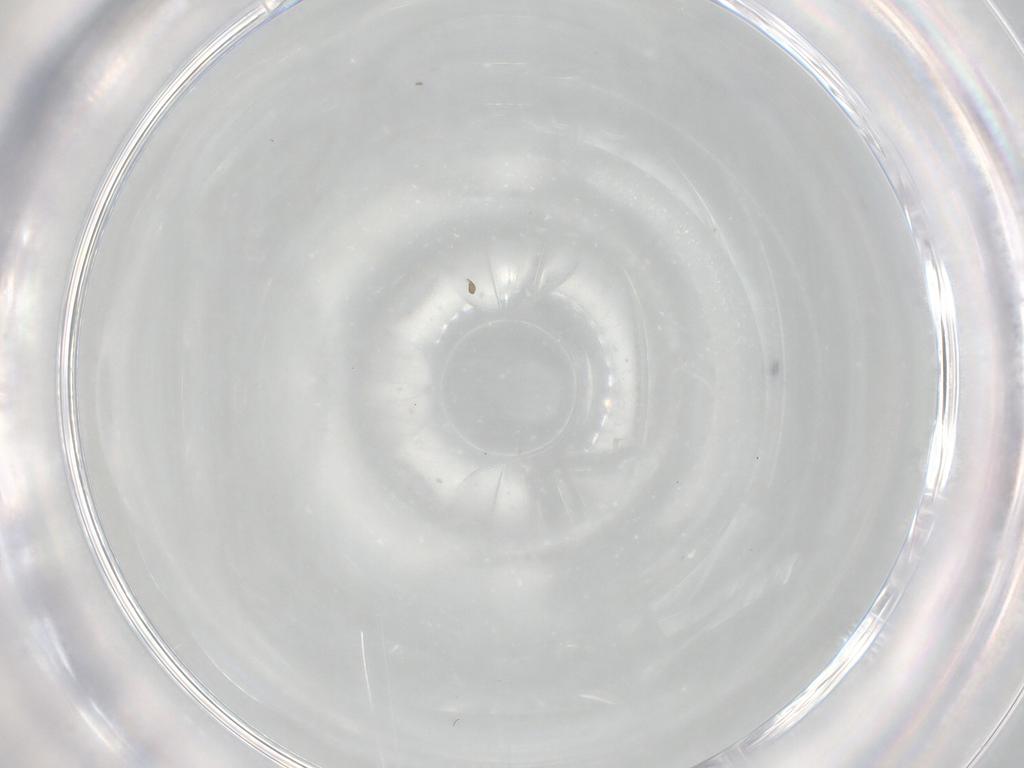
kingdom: Animalia
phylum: Arthropoda
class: Insecta
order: Diptera
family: Phoridae
